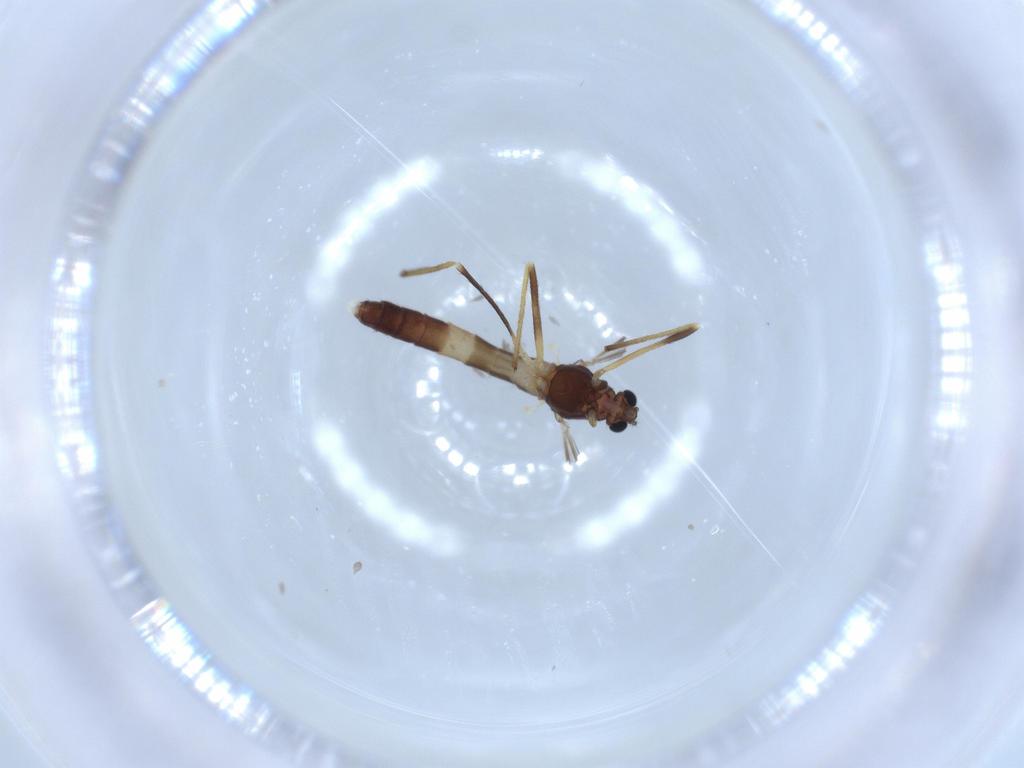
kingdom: Animalia
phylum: Arthropoda
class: Insecta
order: Diptera
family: Chironomidae
